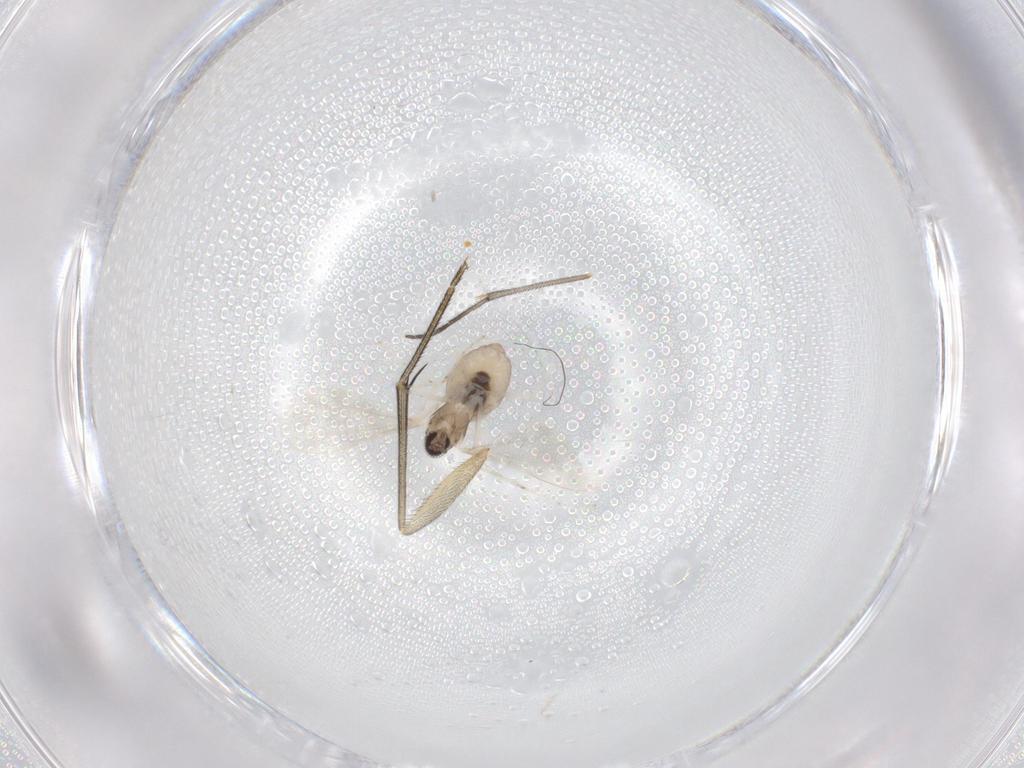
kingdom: Animalia
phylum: Arthropoda
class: Insecta
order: Diptera
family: Cecidomyiidae
